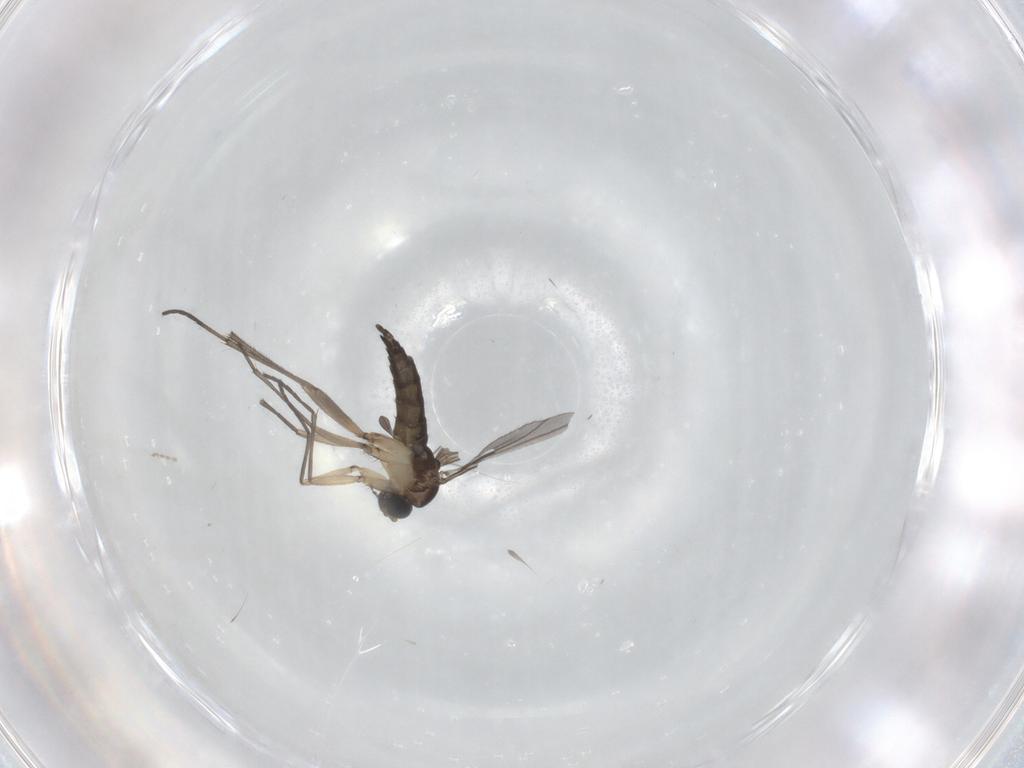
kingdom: Animalia
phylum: Arthropoda
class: Insecta
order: Diptera
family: Sciaridae
